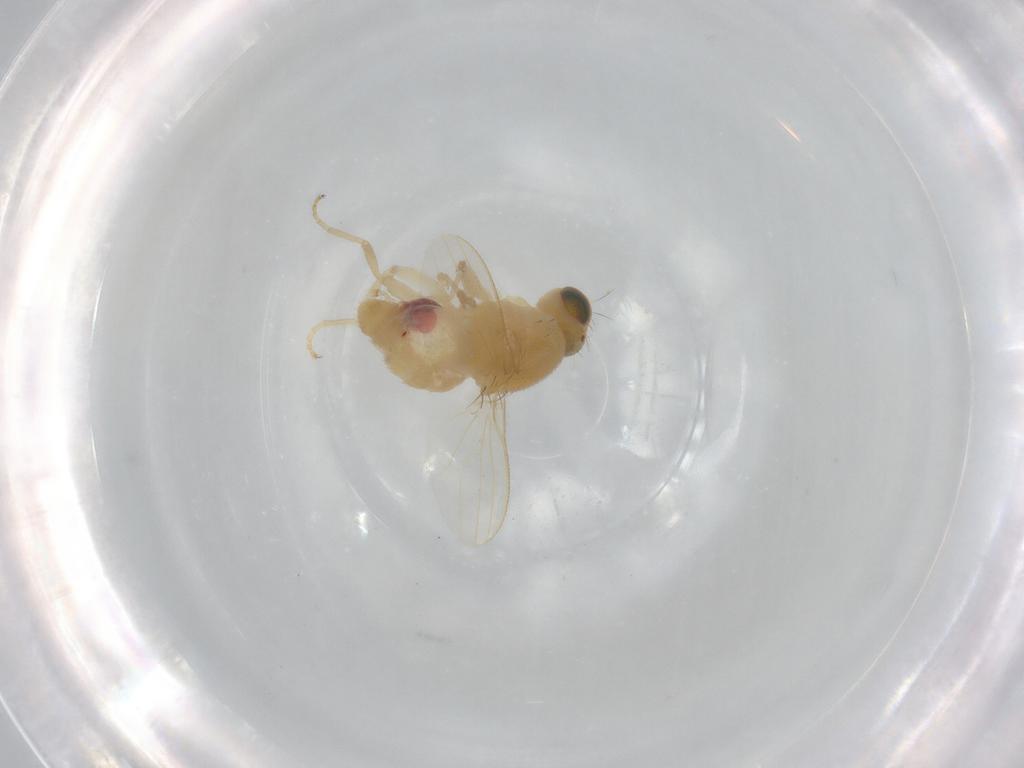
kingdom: Animalia
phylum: Arthropoda
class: Insecta
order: Diptera
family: Chyromyidae
